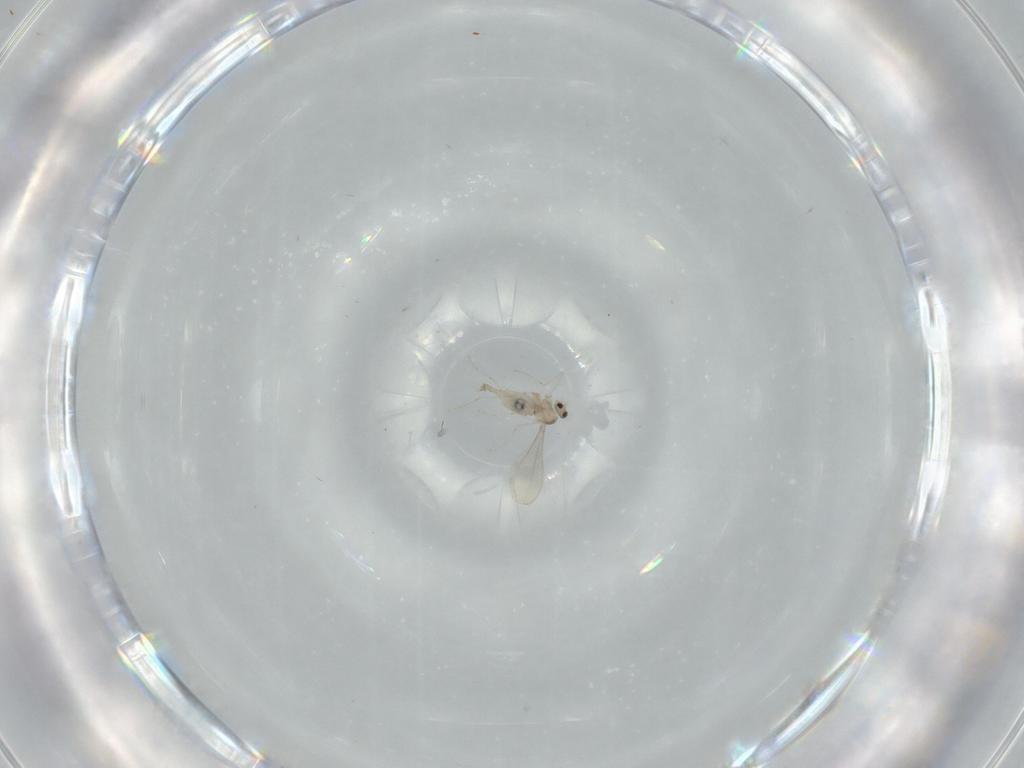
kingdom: Animalia
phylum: Arthropoda
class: Insecta
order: Diptera
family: Cecidomyiidae
